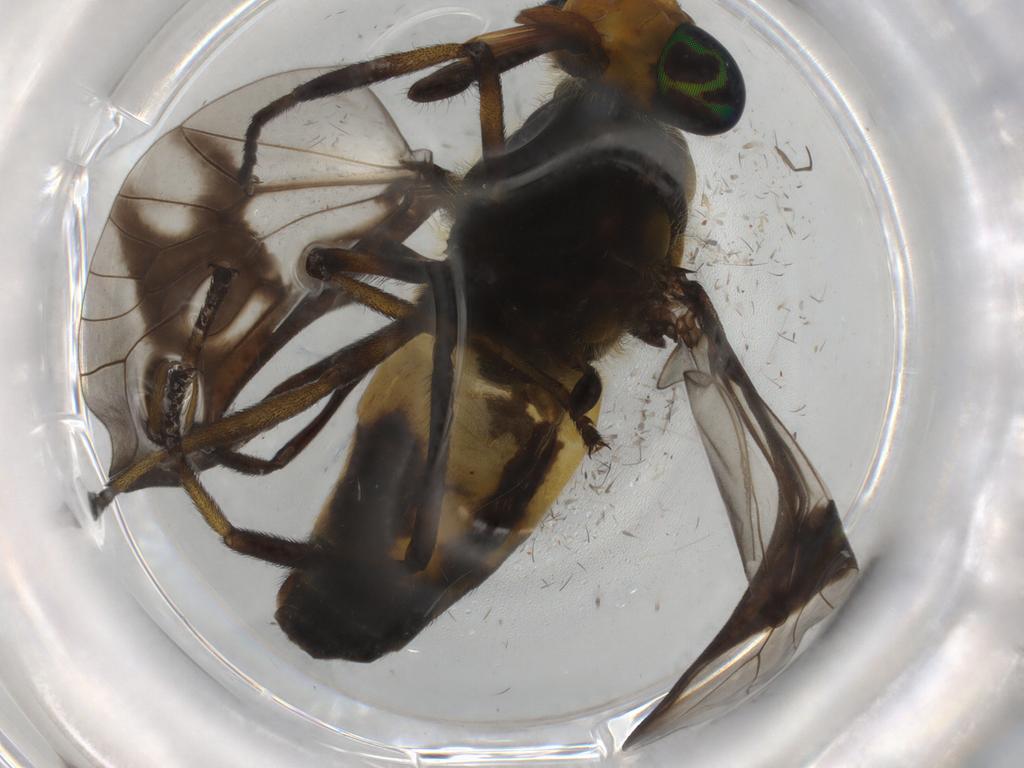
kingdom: Animalia
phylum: Arthropoda
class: Insecta
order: Diptera
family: Tabanidae
